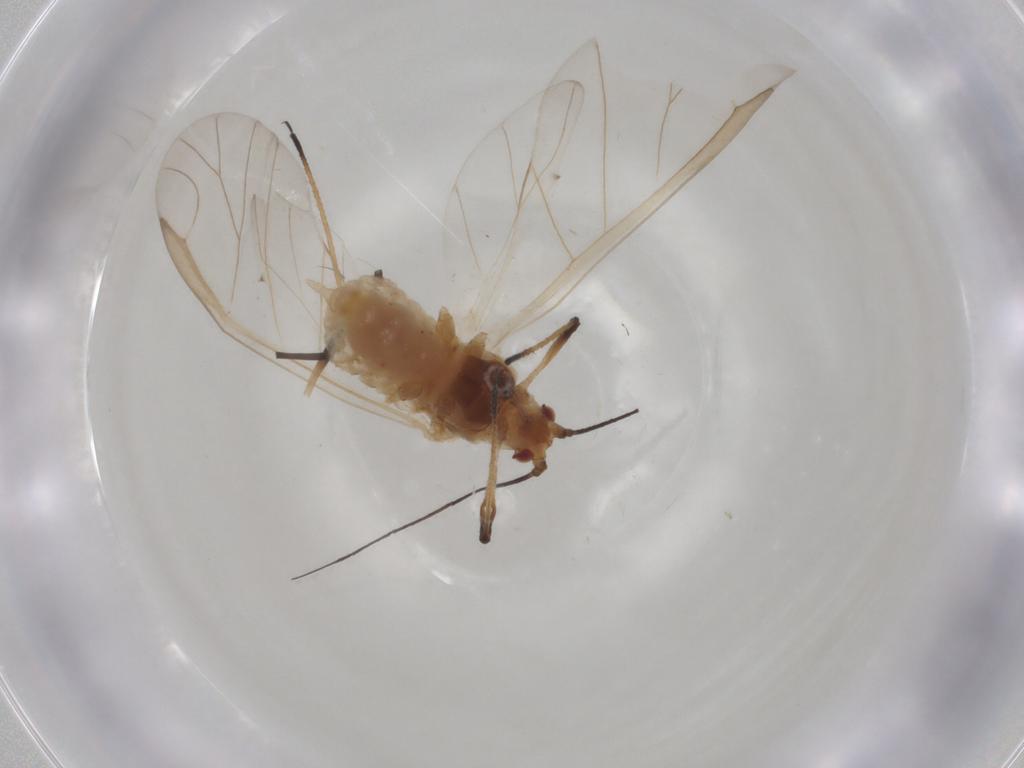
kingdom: Animalia
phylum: Arthropoda
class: Insecta
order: Hemiptera
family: Aphididae
